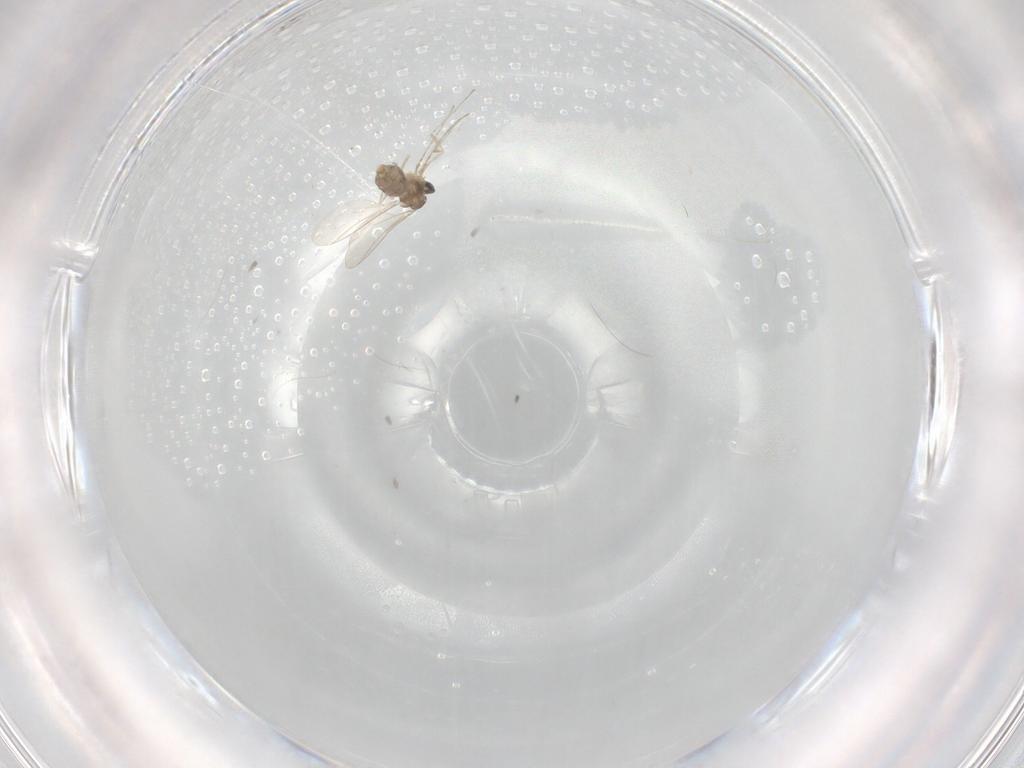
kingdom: Animalia
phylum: Arthropoda
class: Insecta
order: Diptera
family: Cecidomyiidae
